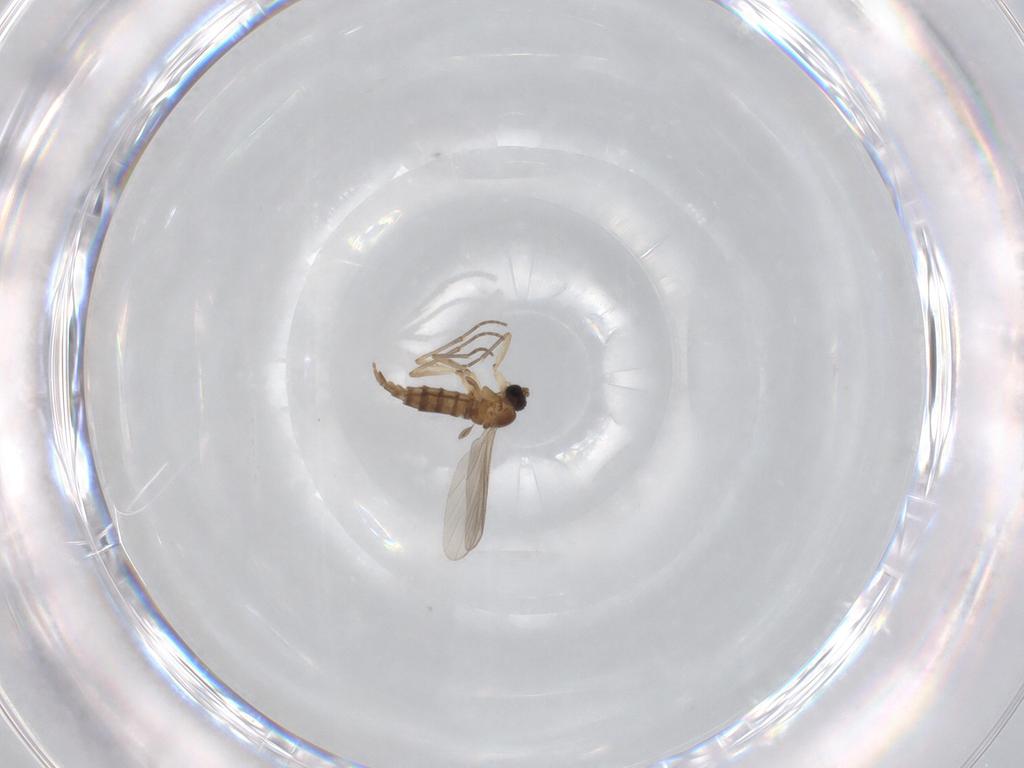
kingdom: Animalia
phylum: Arthropoda
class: Insecta
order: Diptera
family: Sciaridae
